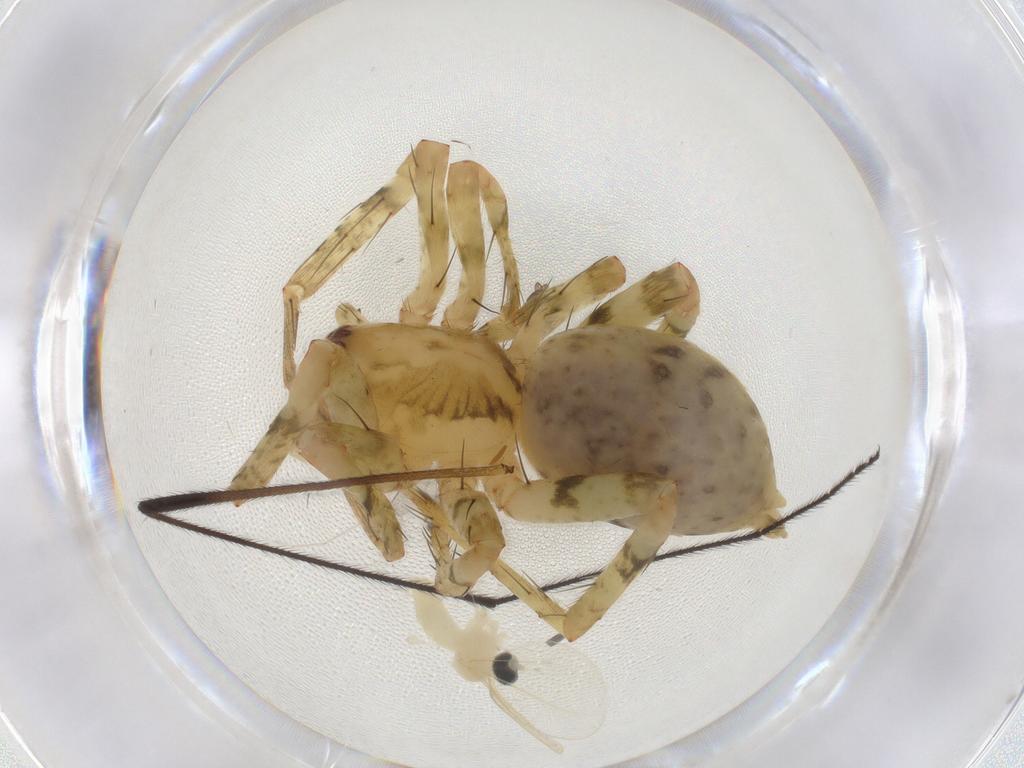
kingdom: Animalia
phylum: Arthropoda
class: Insecta
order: Diptera
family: Cecidomyiidae
